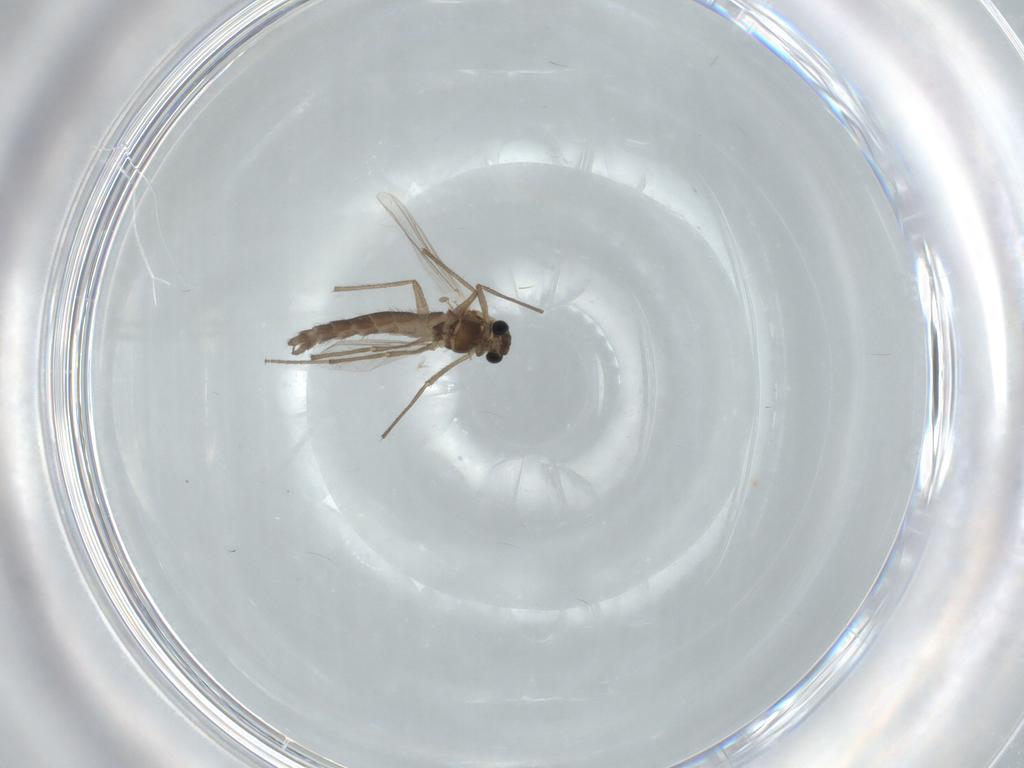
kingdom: Animalia
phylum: Arthropoda
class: Insecta
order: Diptera
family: Chironomidae
